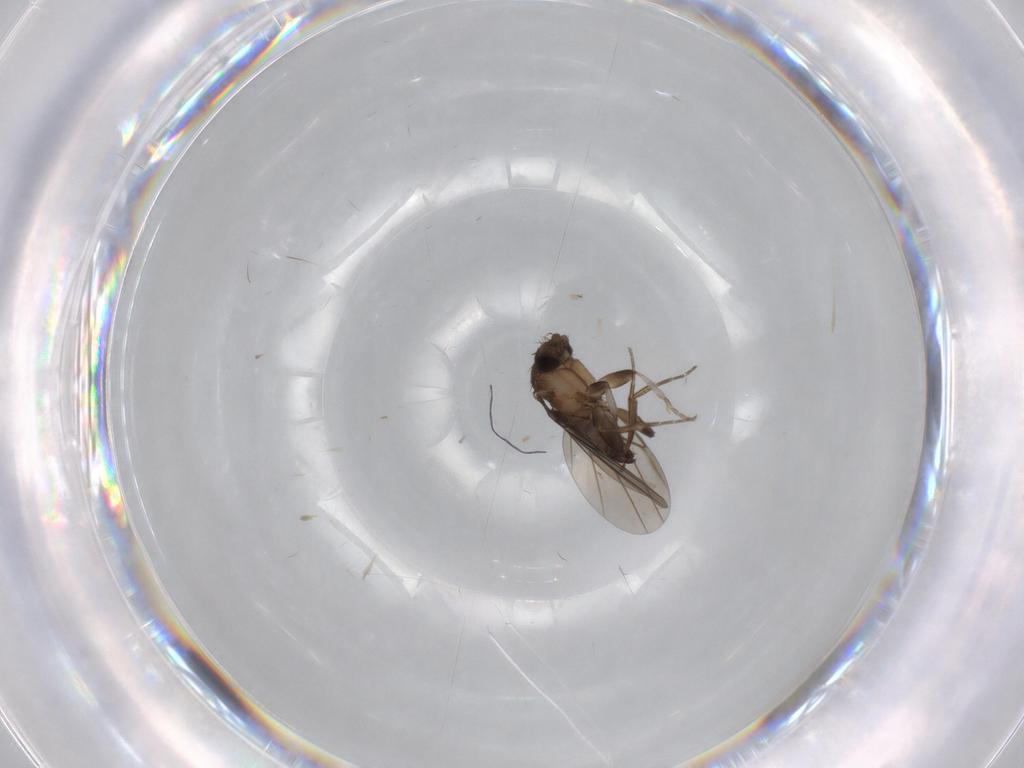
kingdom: Animalia
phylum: Arthropoda
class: Insecta
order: Diptera
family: Phoridae
